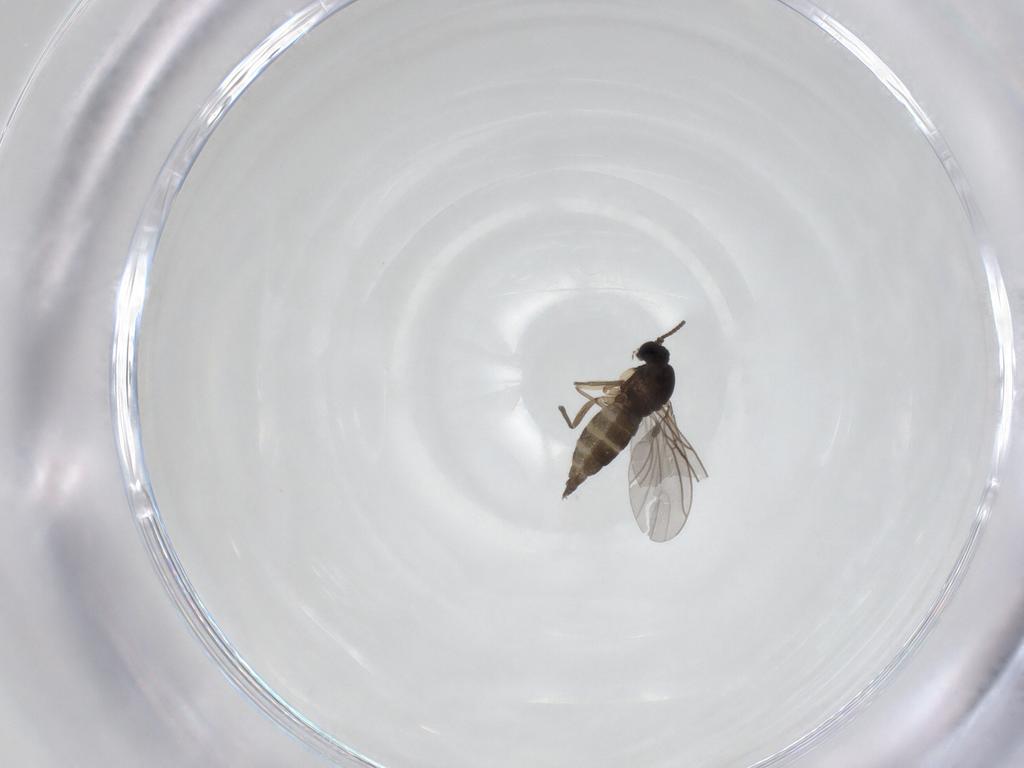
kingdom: Animalia
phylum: Arthropoda
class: Insecta
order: Diptera
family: Sciaridae
